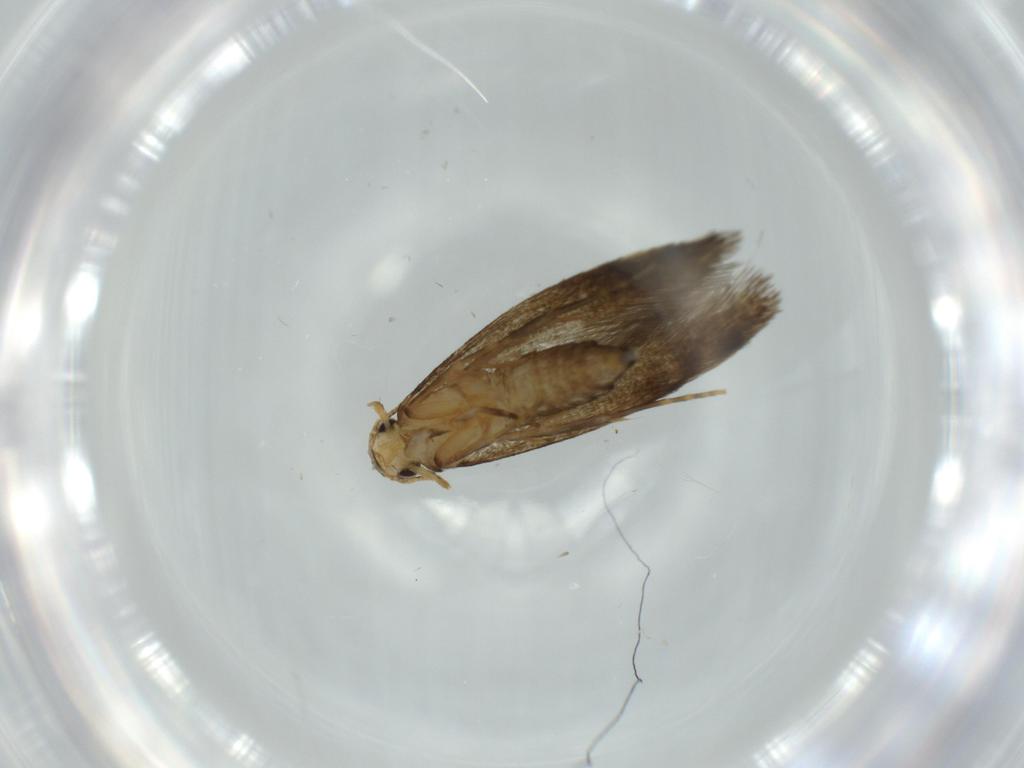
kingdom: Animalia
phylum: Arthropoda
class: Insecta
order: Lepidoptera
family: Tineidae
